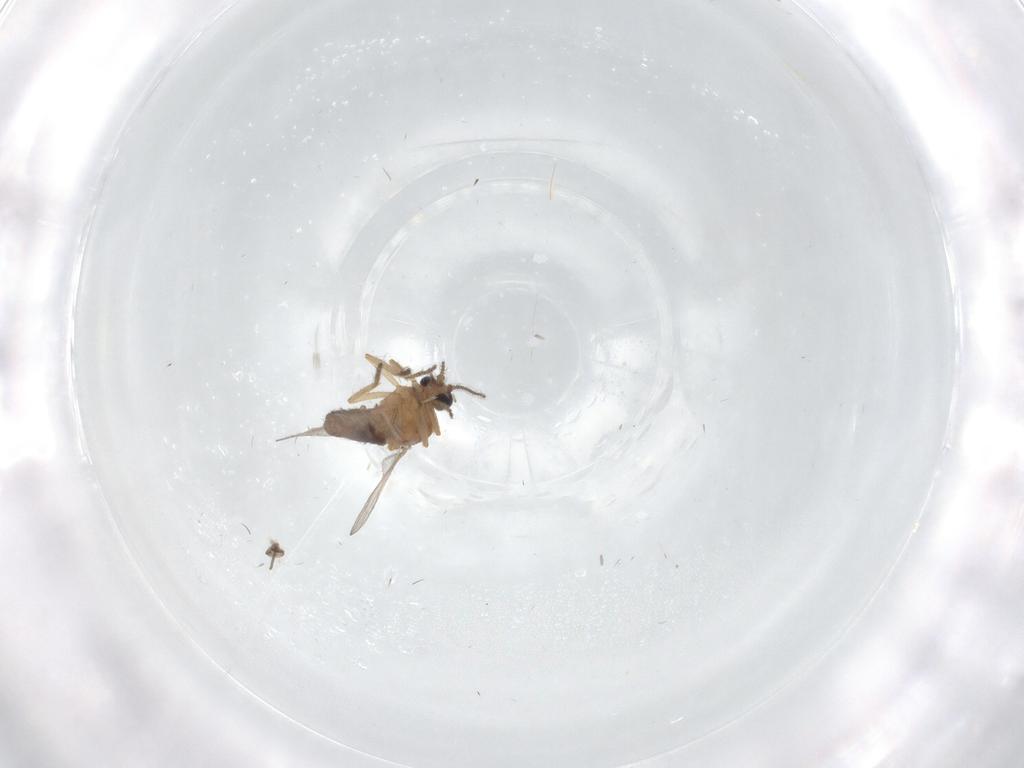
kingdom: Animalia
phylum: Arthropoda
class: Insecta
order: Diptera
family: Ceratopogonidae
